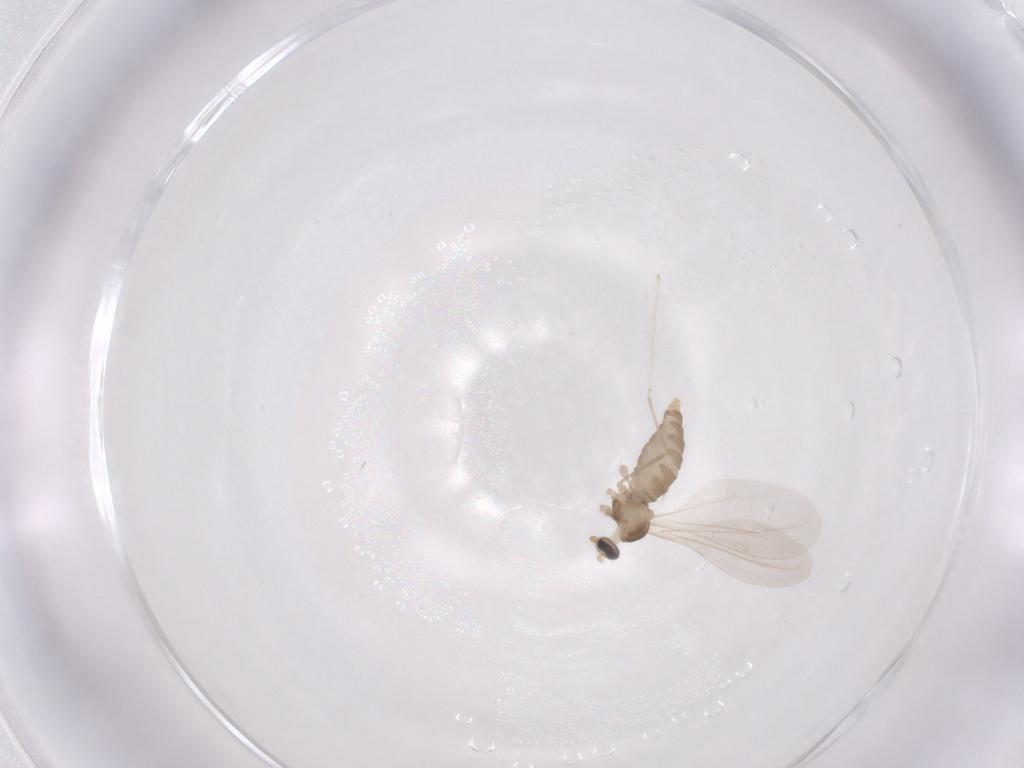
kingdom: Animalia
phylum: Arthropoda
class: Insecta
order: Diptera
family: Cecidomyiidae
